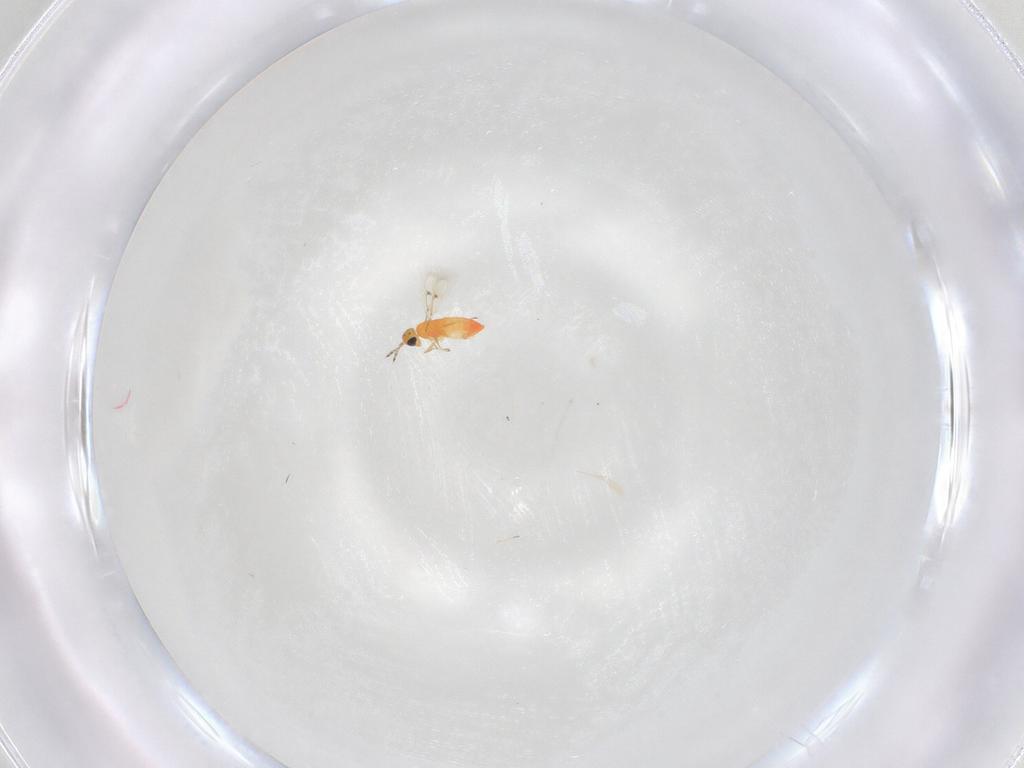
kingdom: Animalia
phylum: Arthropoda
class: Insecta
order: Hymenoptera
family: Trichogrammatidae
